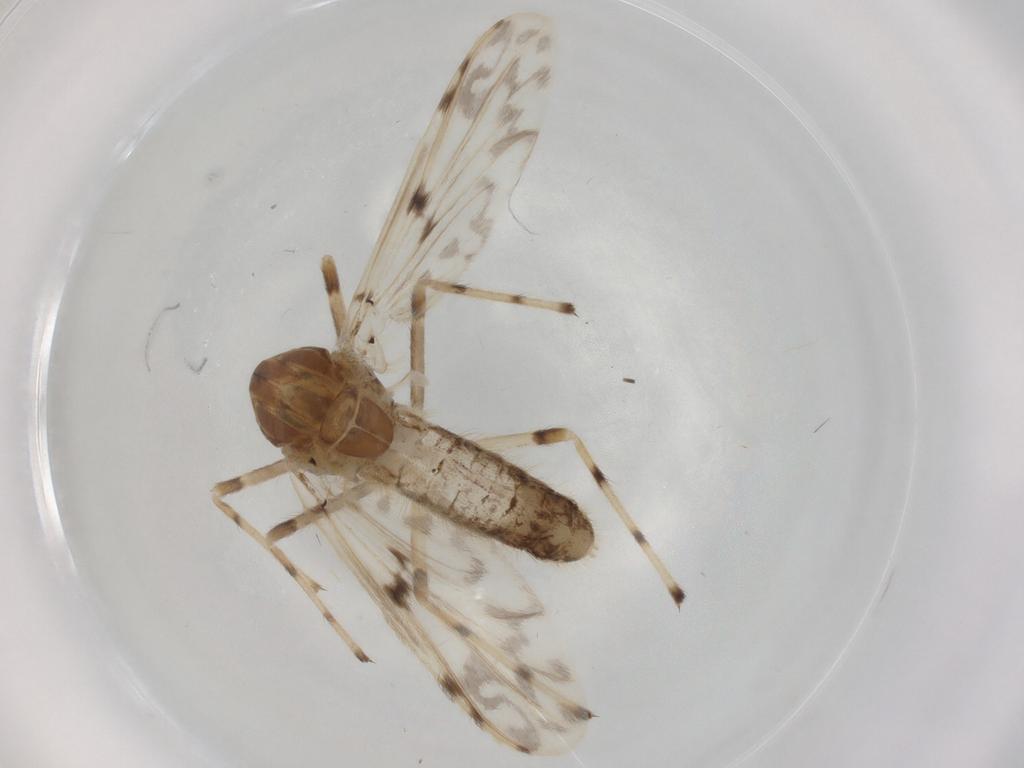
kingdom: Animalia
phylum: Arthropoda
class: Insecta
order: Diptera
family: Chironomidae
